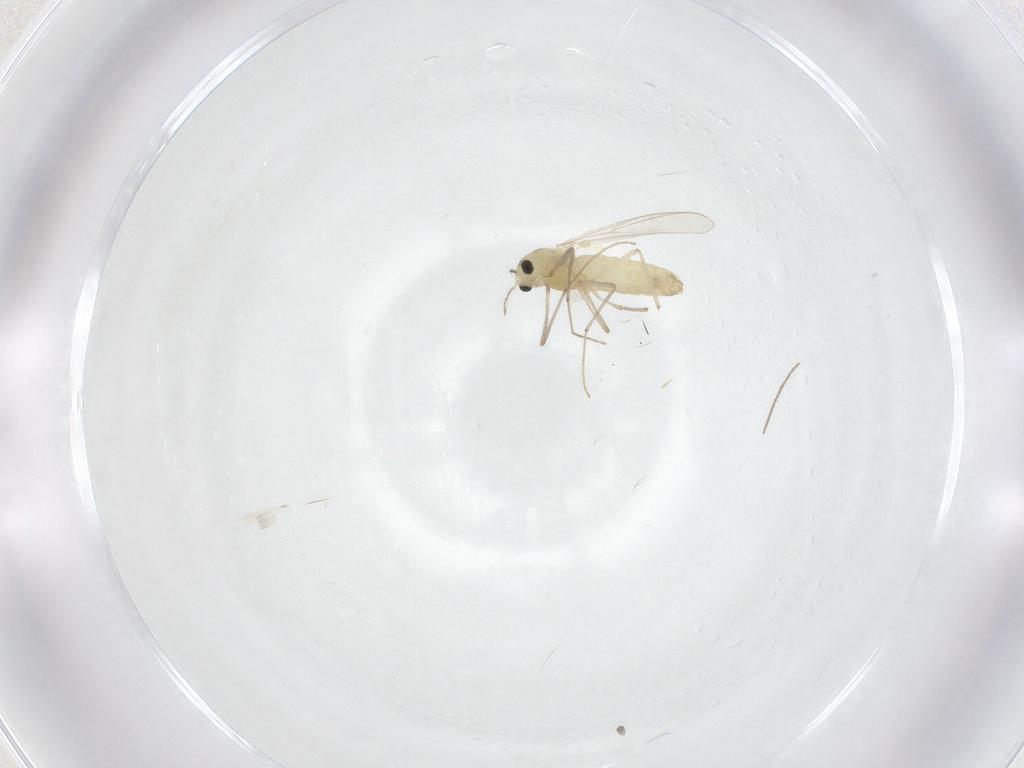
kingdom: Animalia
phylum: Arthropoda
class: Insecta
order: Diptera
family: Chironomidae
